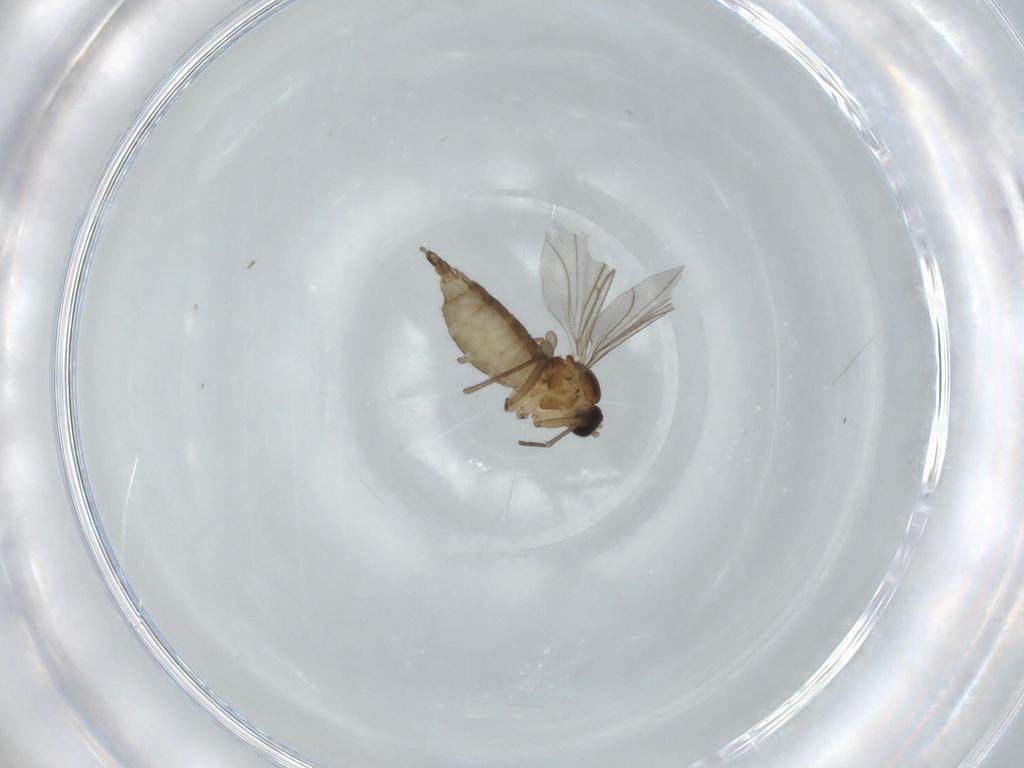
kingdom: Animalia
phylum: Arthropoda
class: Insecta
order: Diptera
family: Sciaridae
